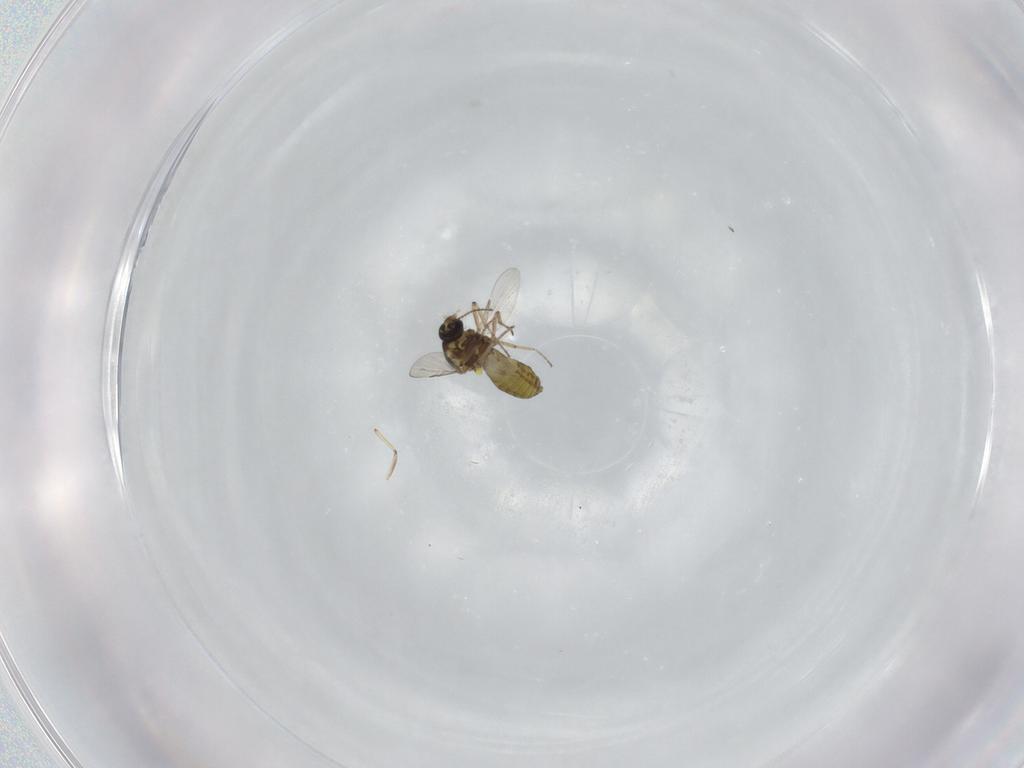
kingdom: Animalia
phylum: Arthropoda
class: Insecta
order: Diptera
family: Ceratopogonidae
